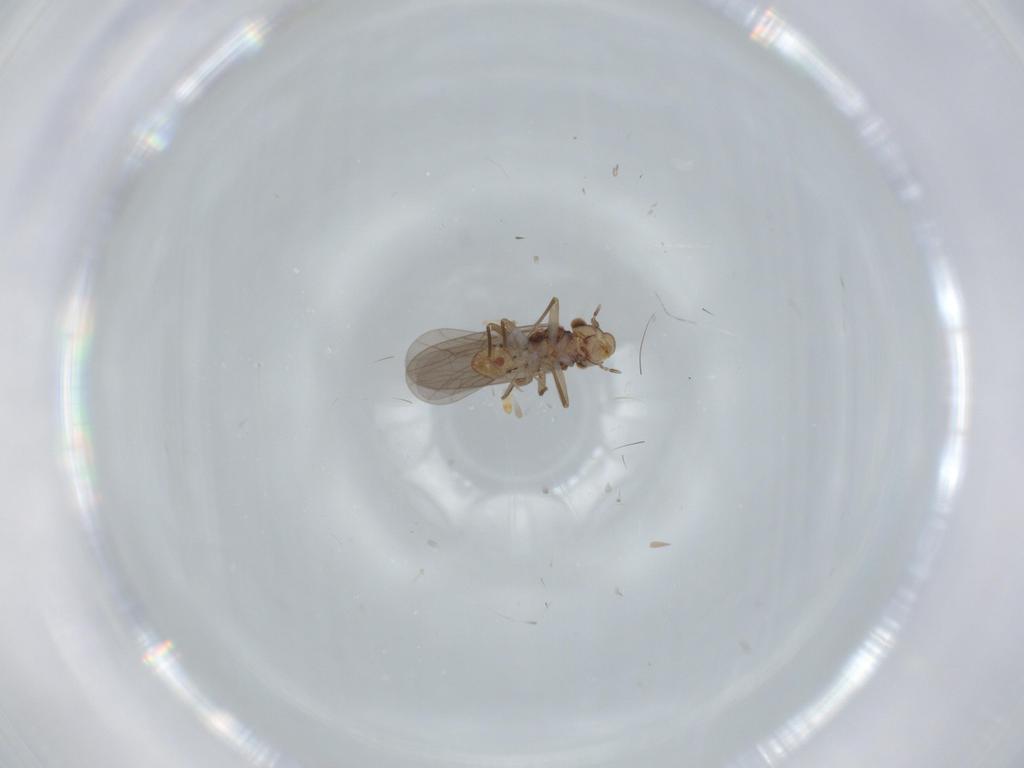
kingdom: Animalia
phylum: Arthropoda
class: Insecta
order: Psocodea
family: Lepidopsocidae
